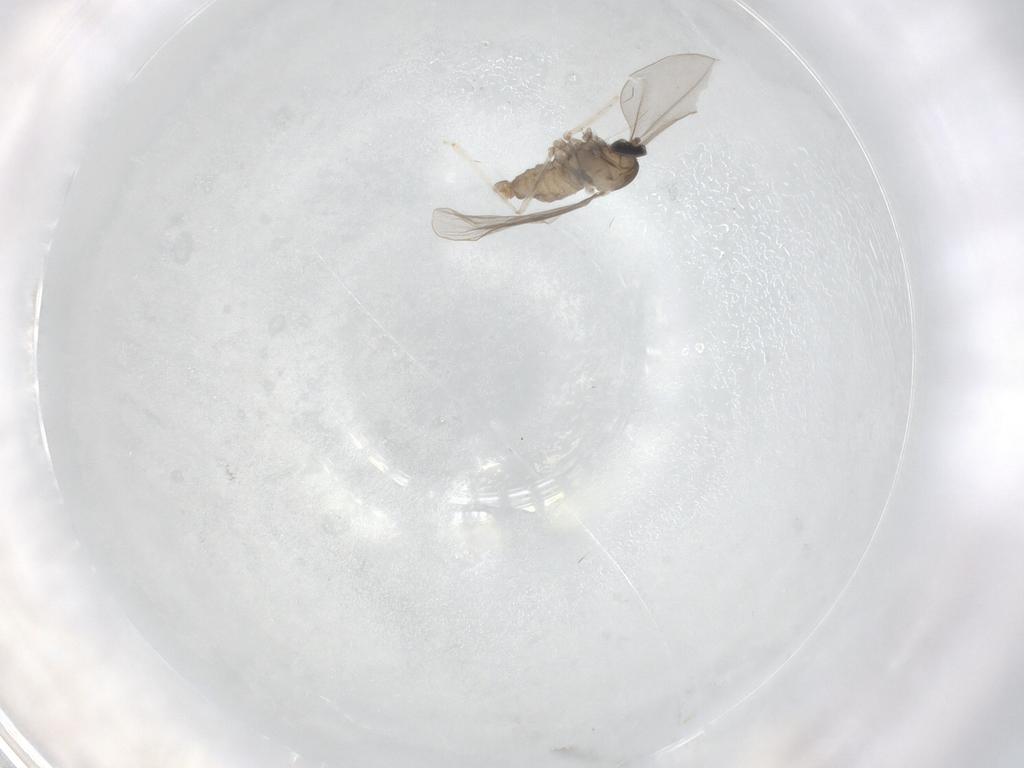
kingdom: Animalia
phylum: Arthropoda
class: Insecta
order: Diptera
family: Cecidomyiidae
